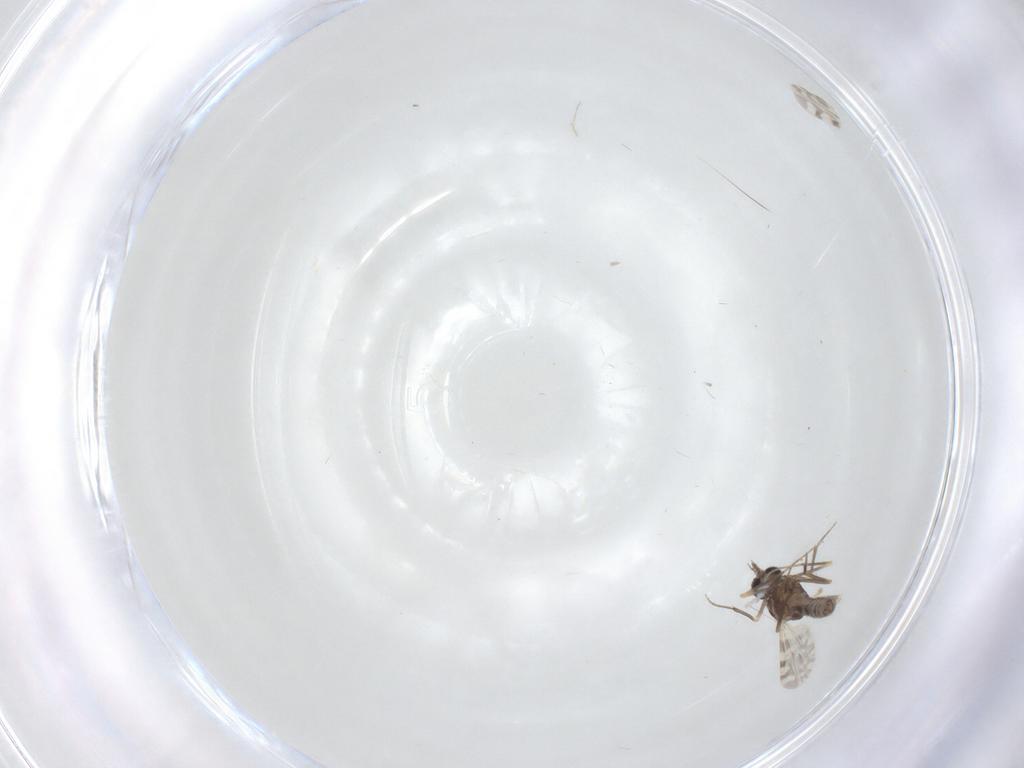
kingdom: Animalia
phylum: Arthropoda
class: Insecta
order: Diptera
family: Ceratopogonidae
